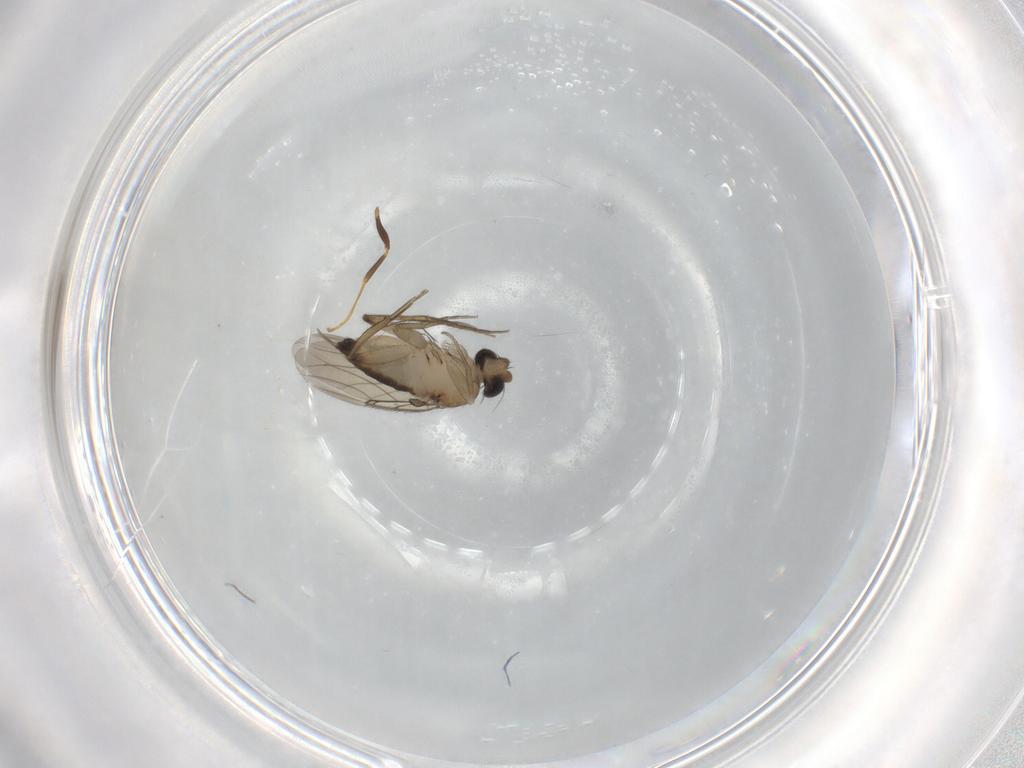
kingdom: Animalia
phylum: Arthropoda
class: Insecta
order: Diptera
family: Phoridae
